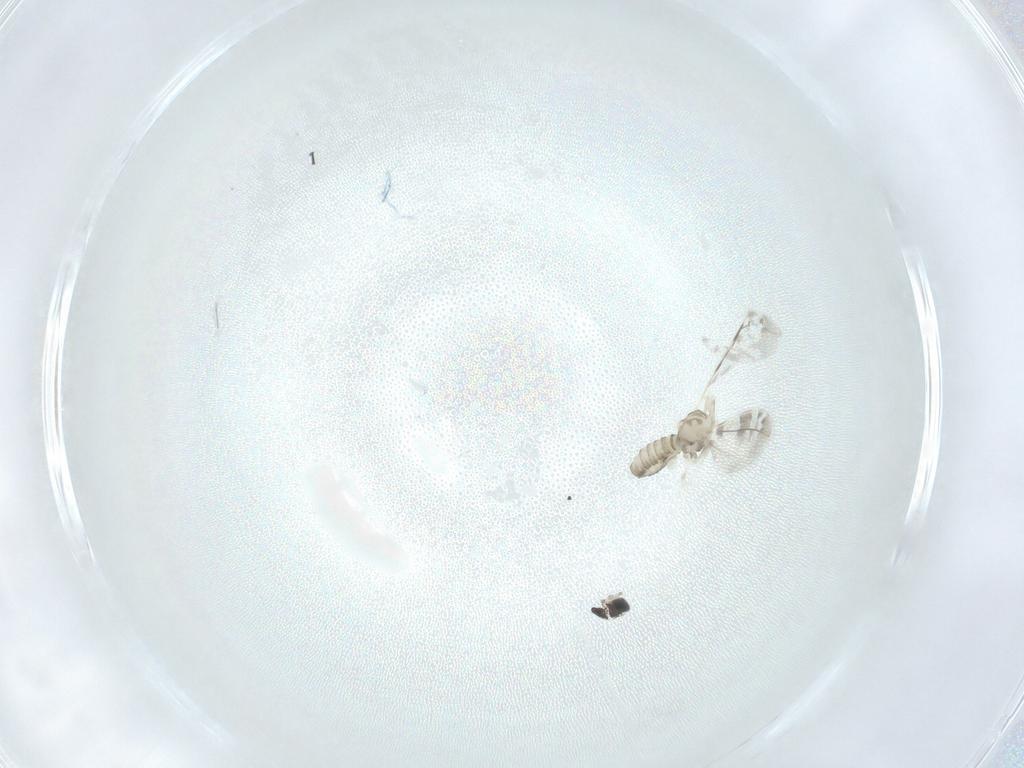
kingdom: Animalia
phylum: Arthropoda
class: Insecta
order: Diptera
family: Cecidomyiidae
